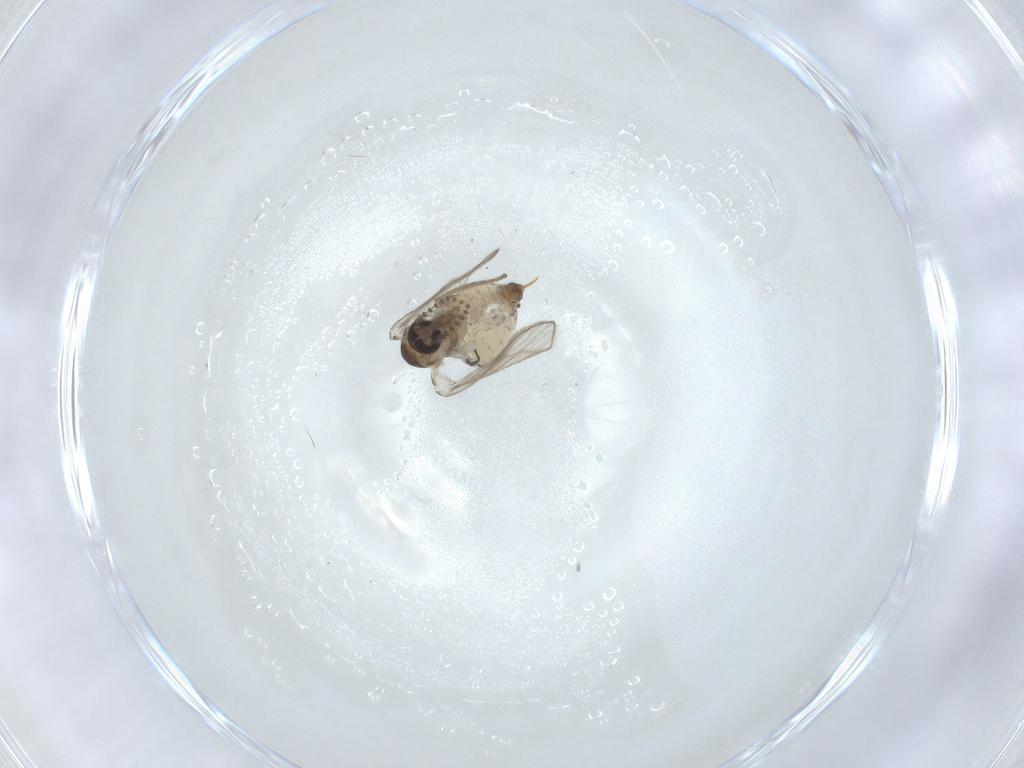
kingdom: Animalia
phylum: Arthropoda
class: Insecta
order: Diptera
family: Psychodidae
